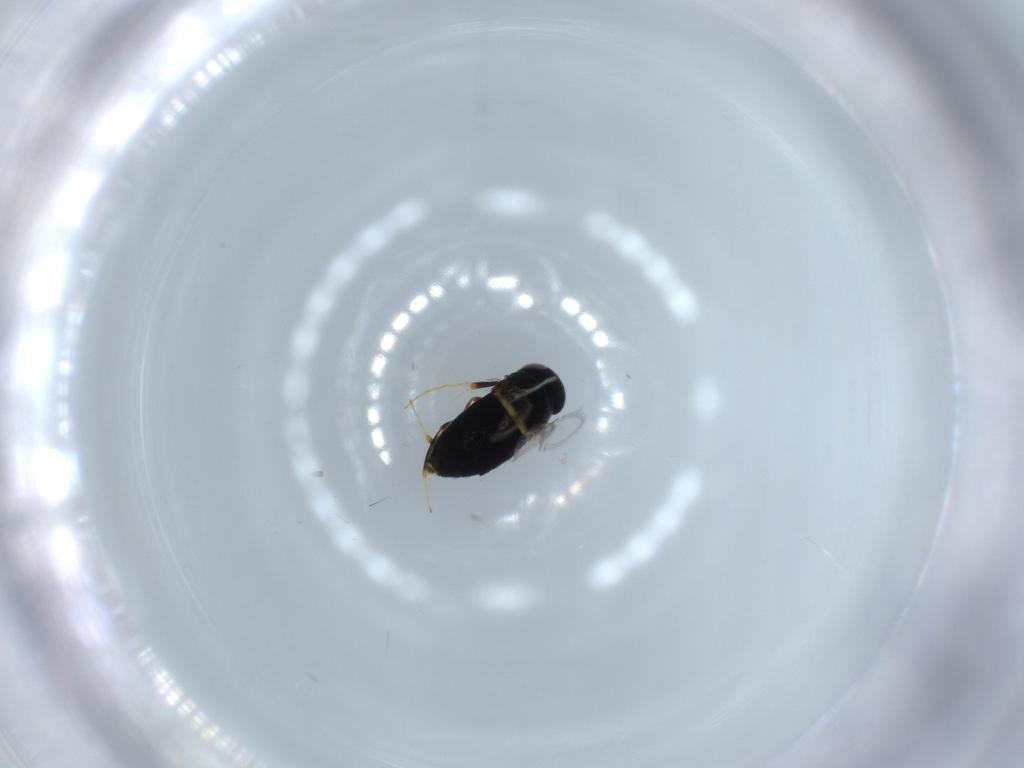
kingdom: Animalia
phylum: Arthropoda
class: Insecta
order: Hymenoptera
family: Signiphoridae
